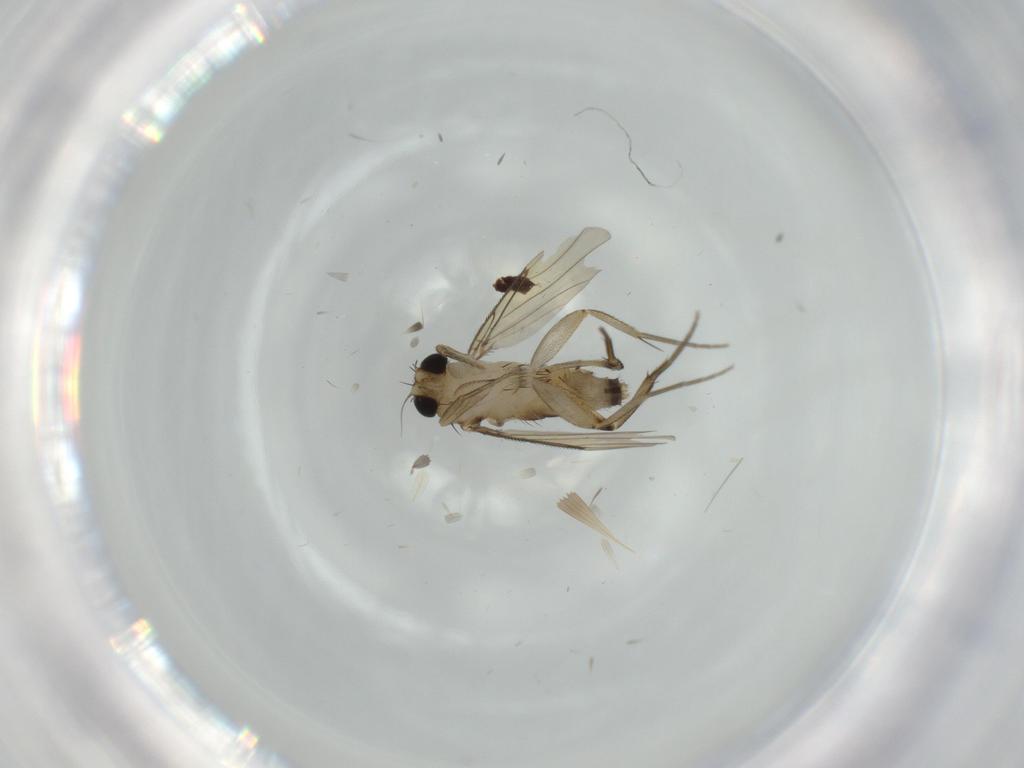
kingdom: Animalia
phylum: Arthropoda
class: Insecta
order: Diptera
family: Phoridae
